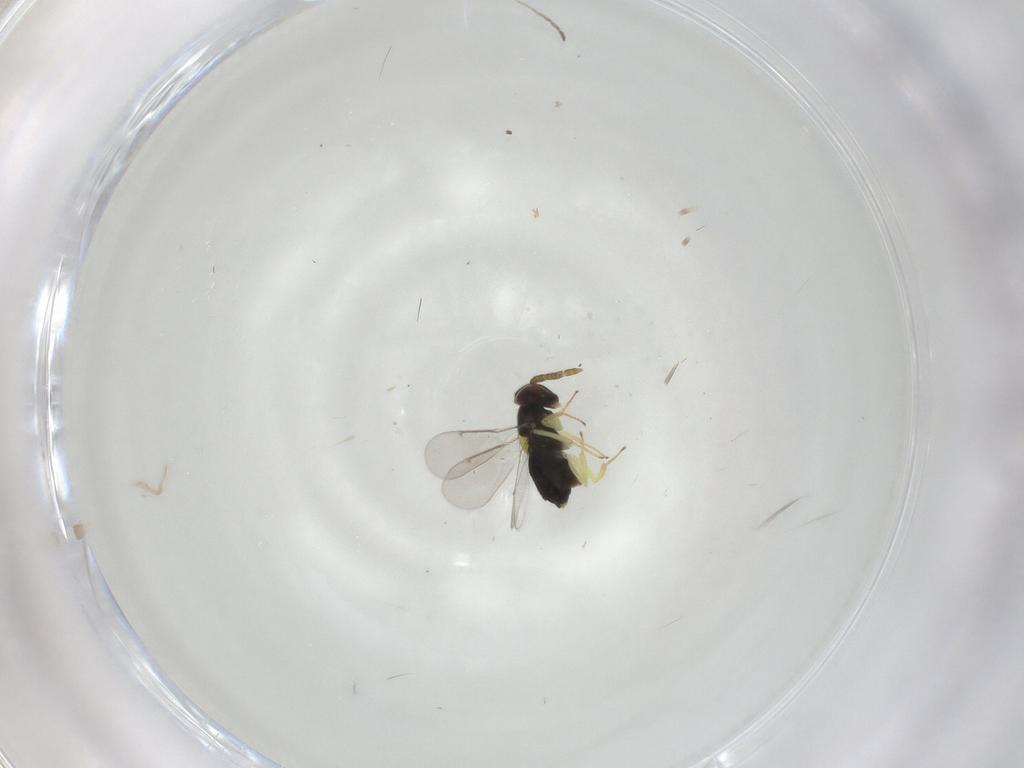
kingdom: Animalia
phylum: Arthropoda
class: Insecta
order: Hymenoptera
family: Aphelinidae
